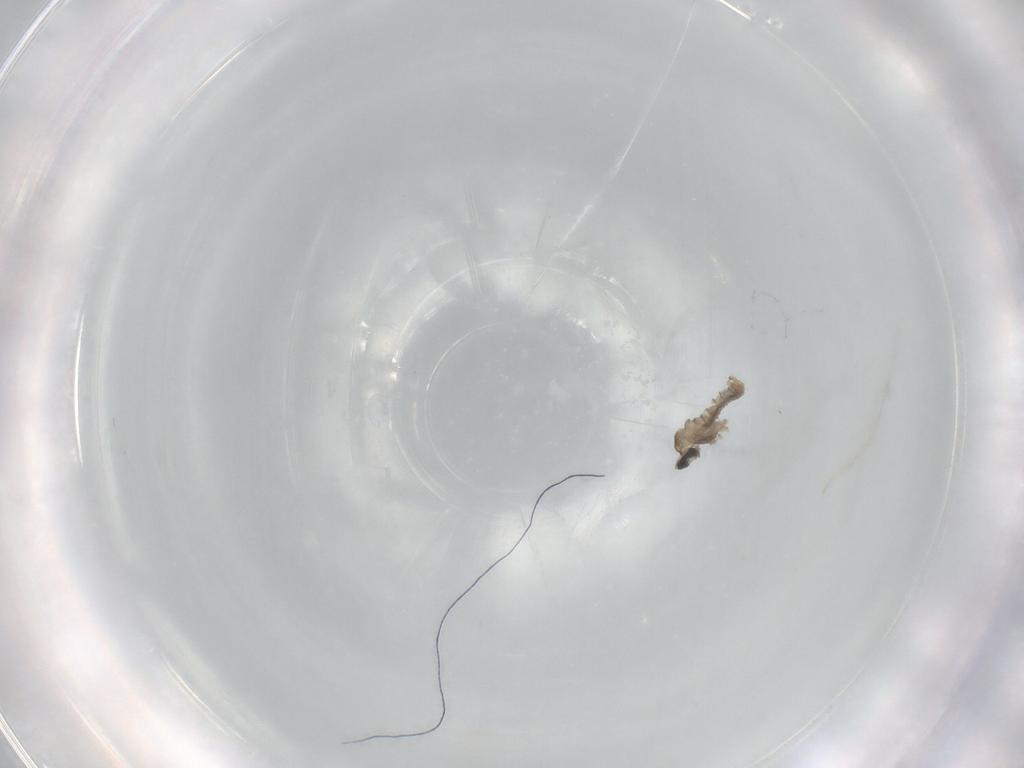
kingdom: Animalia
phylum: Arthropoda
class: Insecta
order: Diptera
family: Cecidomyiidae
